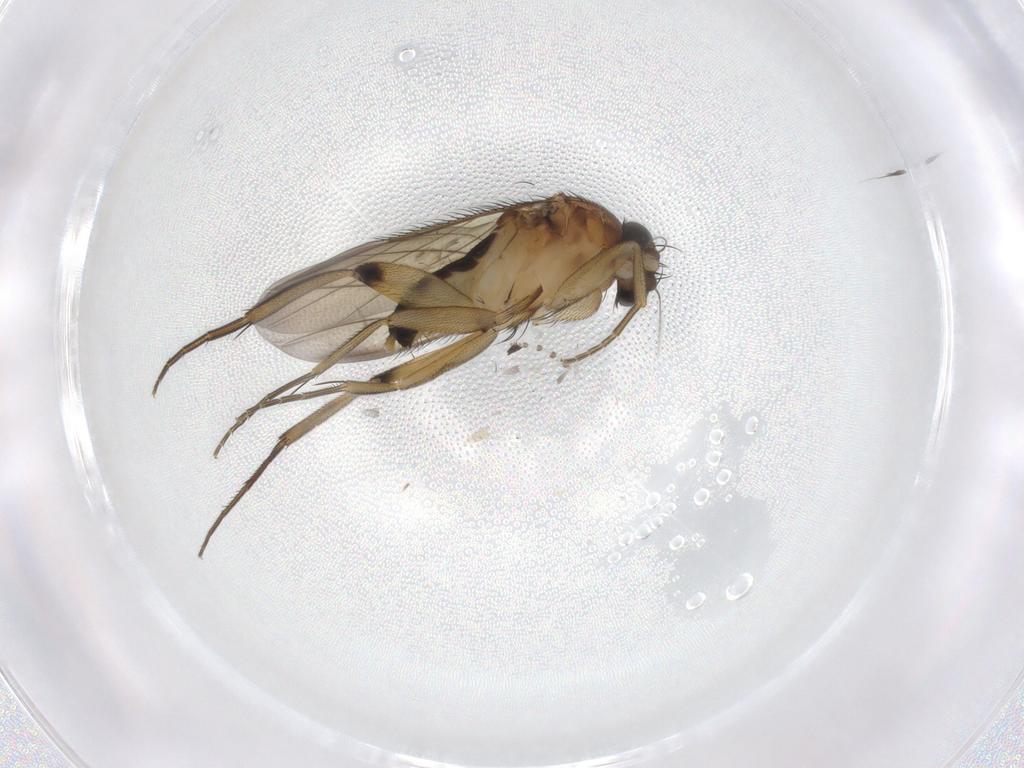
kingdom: Animalia
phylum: Arthropoda
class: Insecta
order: Diptera
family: Phoridae
